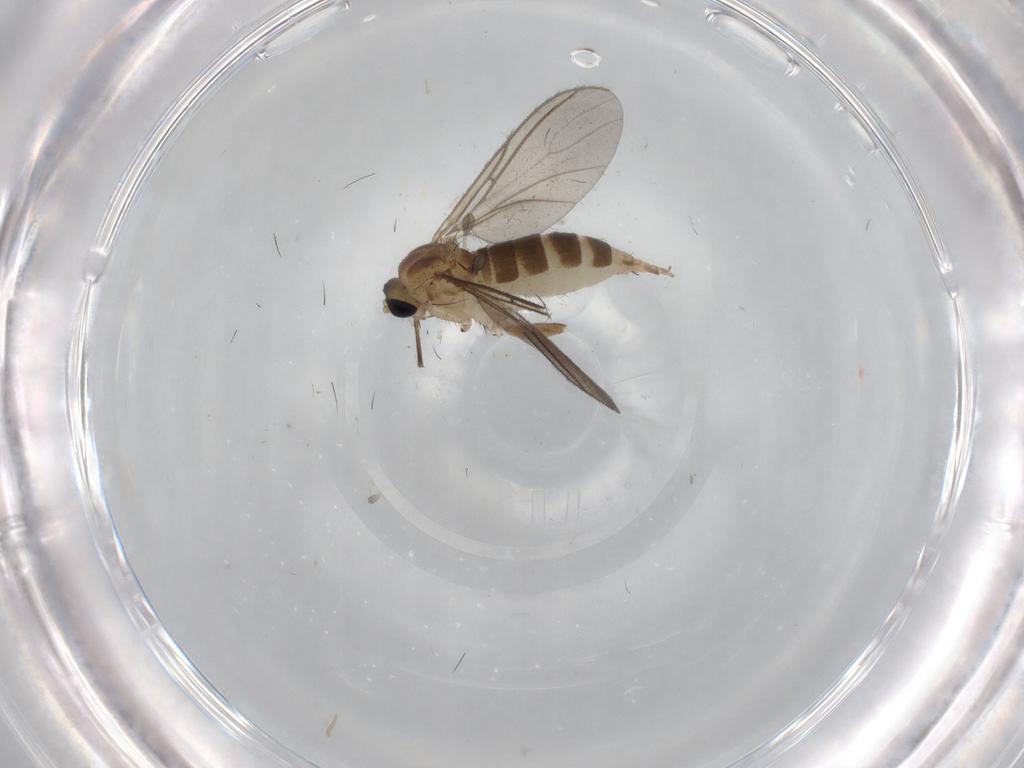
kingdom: Animalia
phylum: Arthropoda
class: Insecta
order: Diptera
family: Sciaridae
